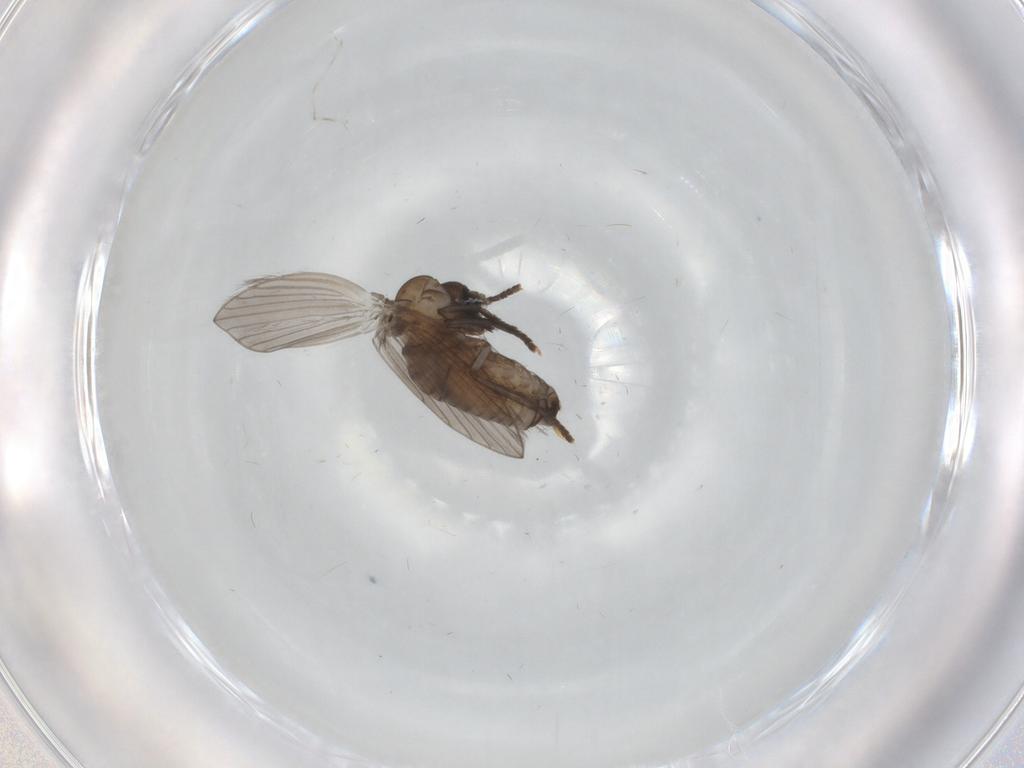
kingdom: Animalia
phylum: Arthropoda
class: Insecta
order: Diptera
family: Psychodidae
